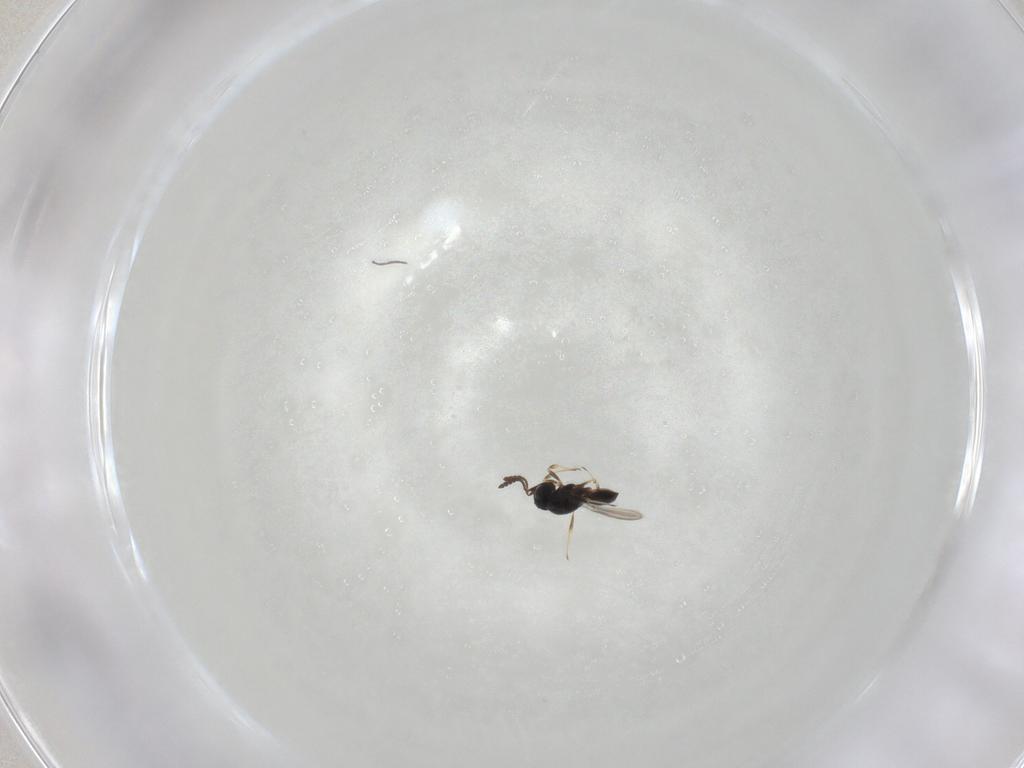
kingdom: Animalia
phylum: Arthropoda
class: Insecta
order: Hymenoptera
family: Scelionidae
